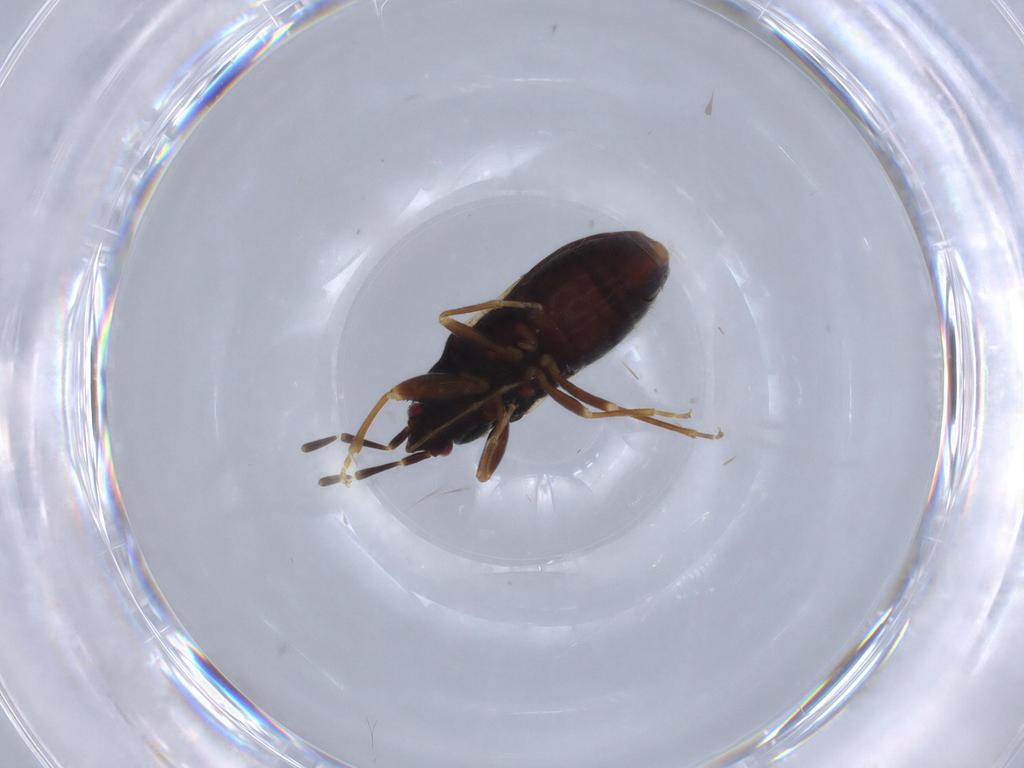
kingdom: Animalia
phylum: Arthropoda
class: Insecta
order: Hemiptera
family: Rhyparochromidae
